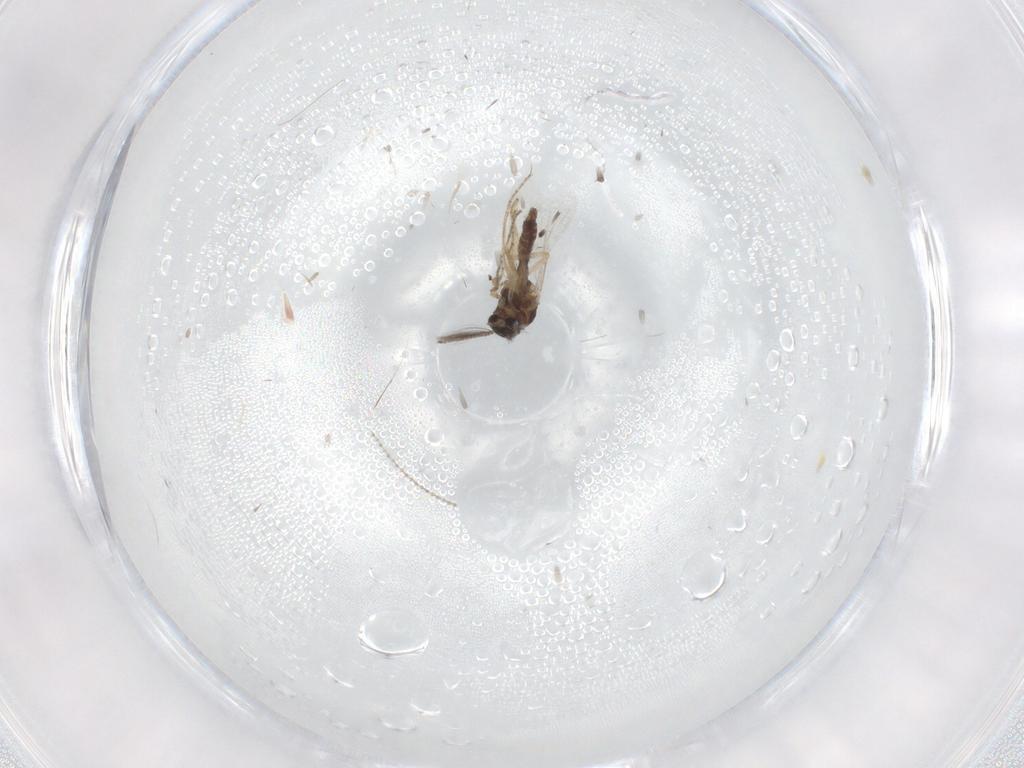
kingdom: Animalia
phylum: Arthropoda
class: Insecta
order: Diptera
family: Cecidomyiidae
